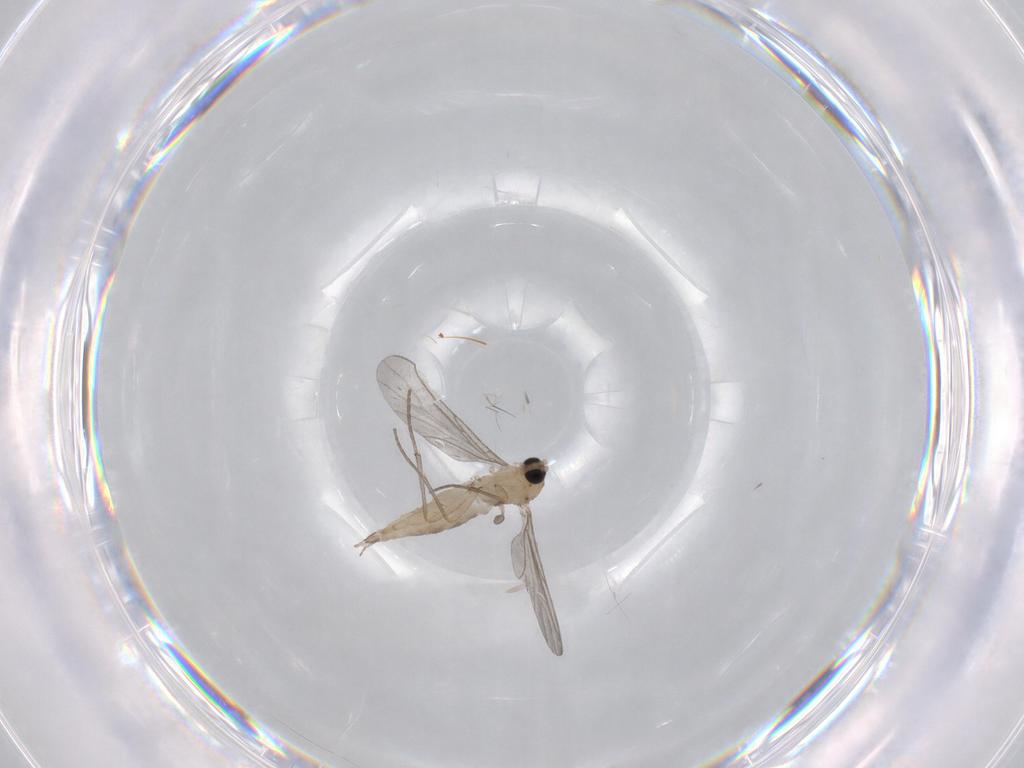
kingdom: Animalia
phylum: Arthropoda
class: Insecta
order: Diptera
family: Sciaridae
